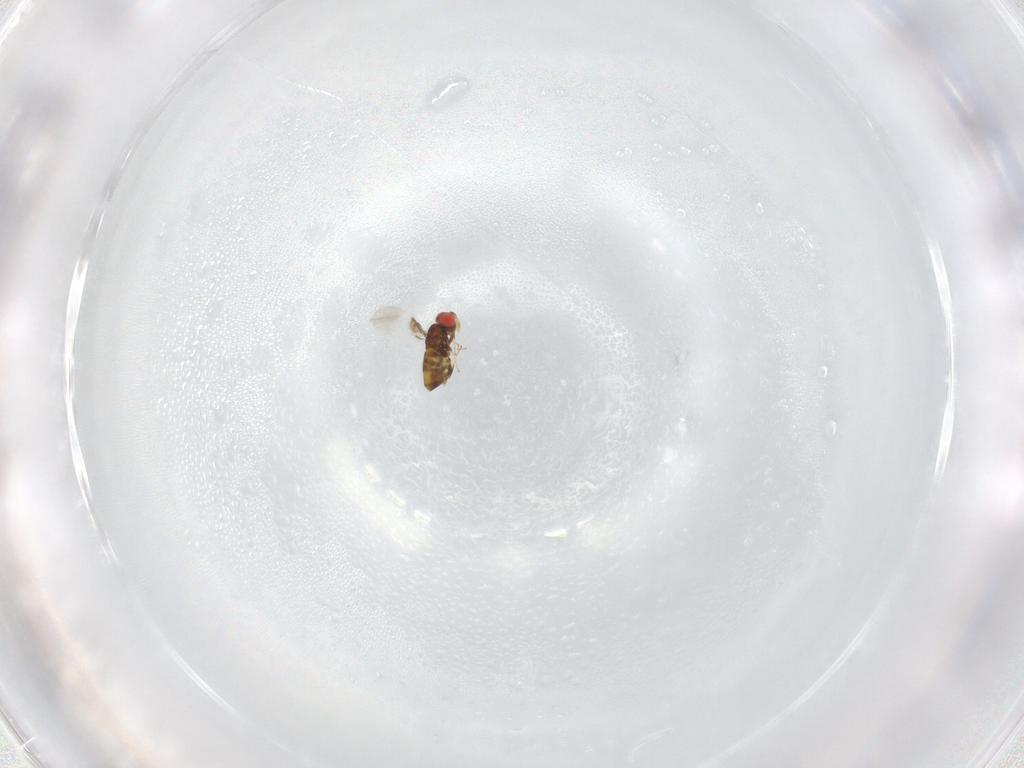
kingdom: Animalia
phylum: Arthropoda
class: Insecta
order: Hymenoptera
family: Trichogrammatidae
